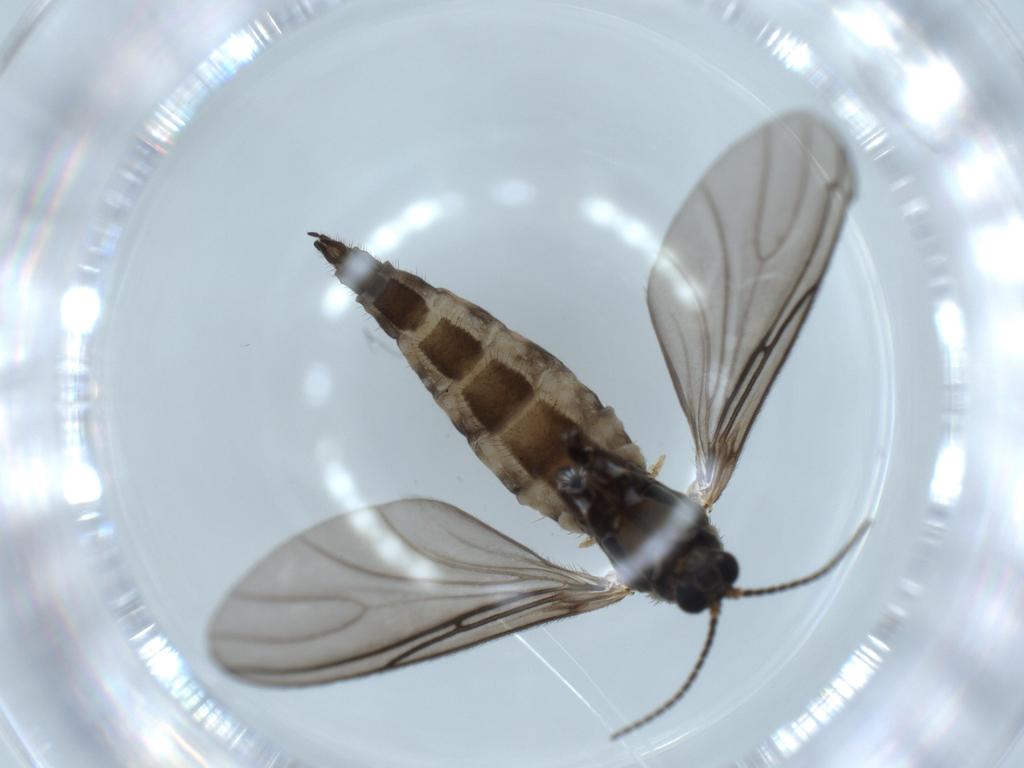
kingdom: Animalia
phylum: Arthropoda
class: Insecta
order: Diptera
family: Sciaridae
